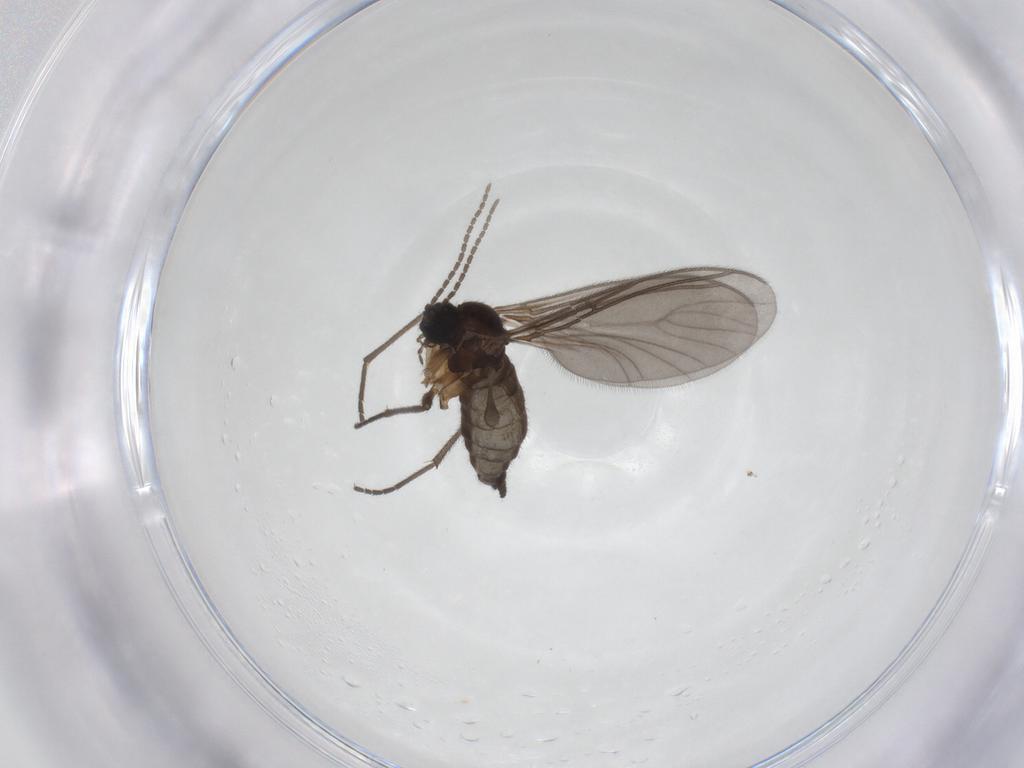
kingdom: Animalia
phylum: Arthropoda
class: Insecta
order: Diptera
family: Sciaridae
